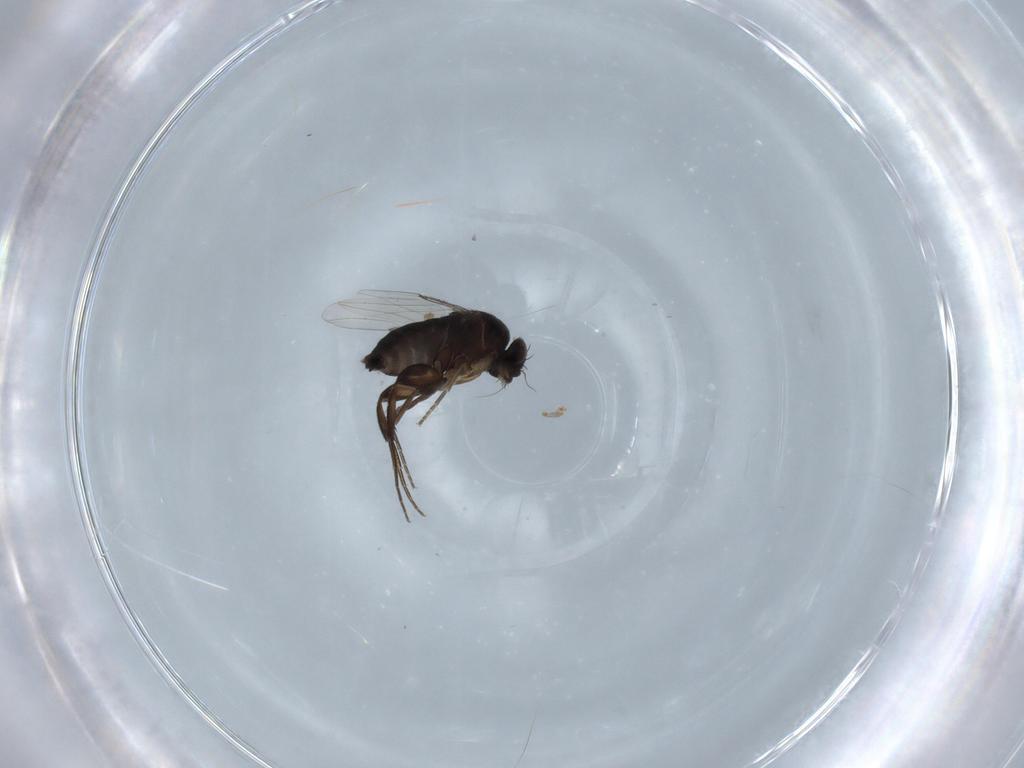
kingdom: Animalia
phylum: Arthropoda
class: Insecta
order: Diptera
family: Phoridae
